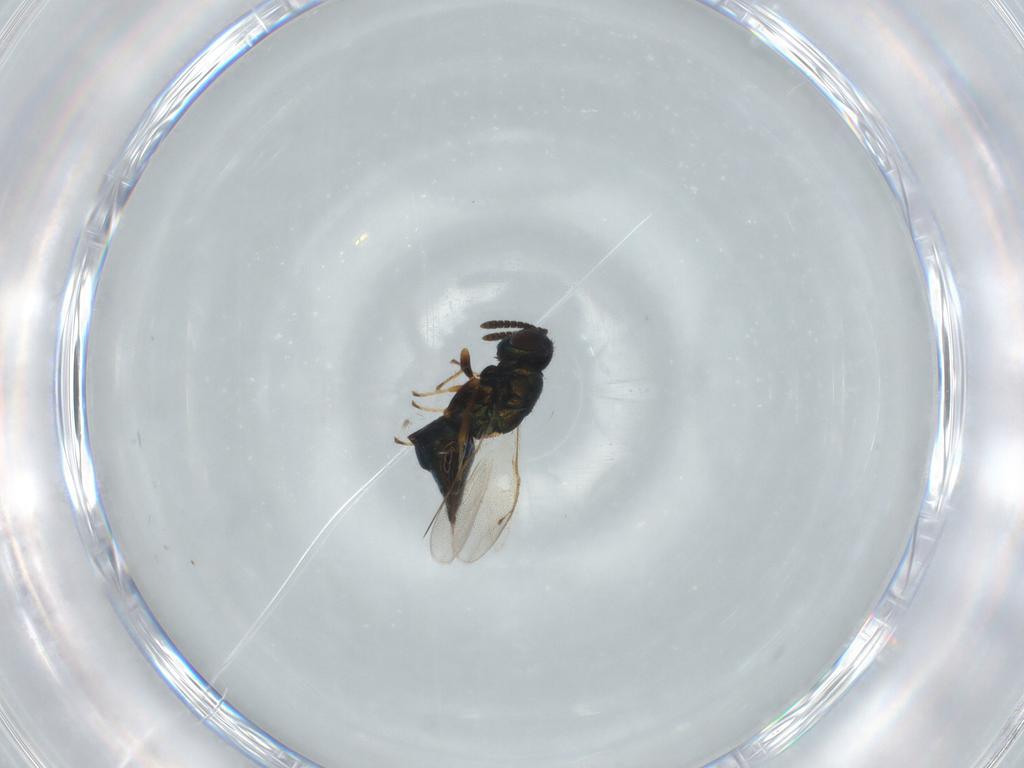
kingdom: Animalia
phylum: Arthropoda
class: Insecta
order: Hymenoptera
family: Pteromalidae
